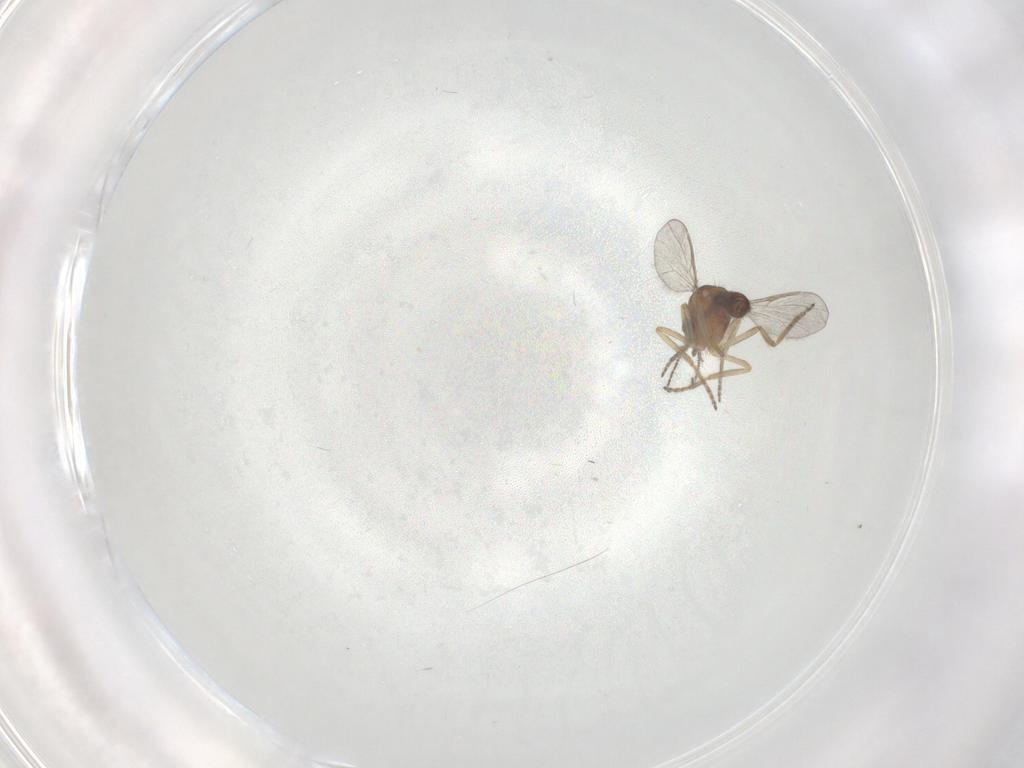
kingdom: Animalia
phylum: Arthropoda
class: Insecta
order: Diptera
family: Ceratopogonidae
